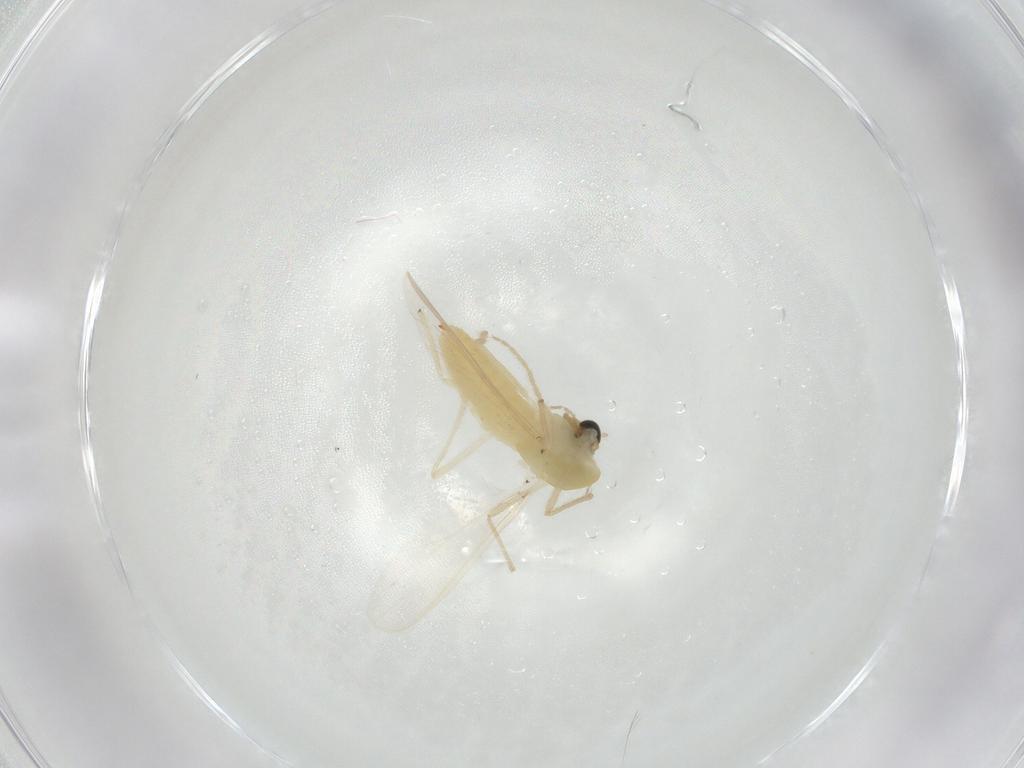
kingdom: Animalia
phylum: Arthropoda
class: Insecta
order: Diptera
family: Chironomidae
